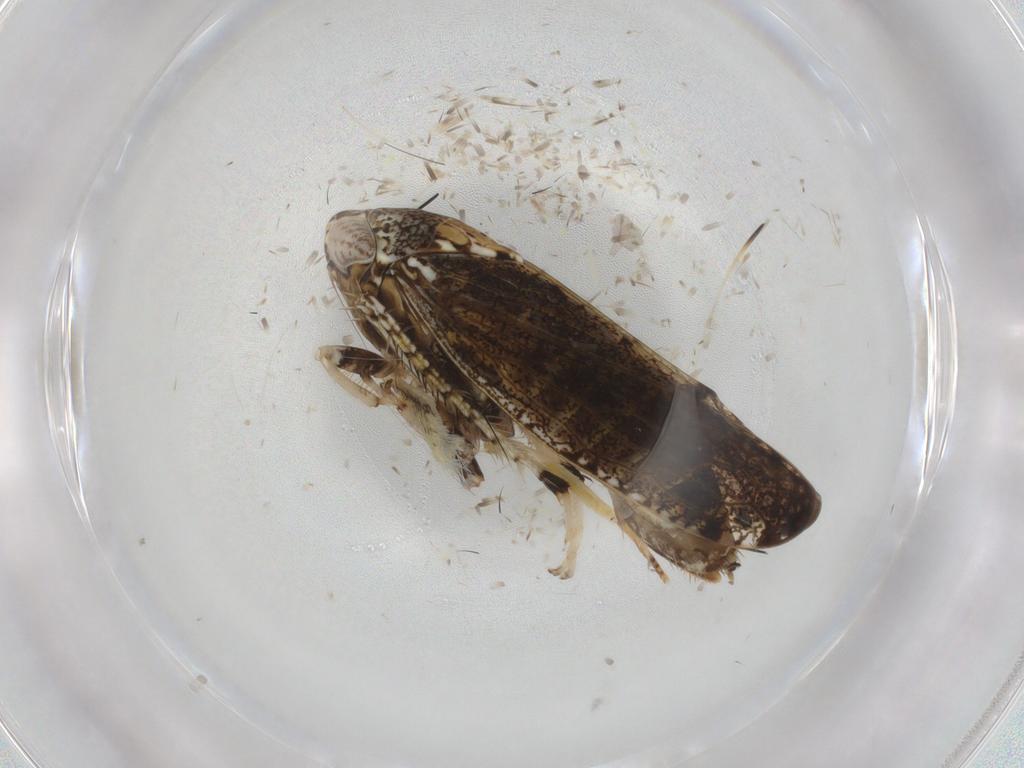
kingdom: Animalia
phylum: Arthropoda
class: Insecta
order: Hemiptera
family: Cicadellidae
